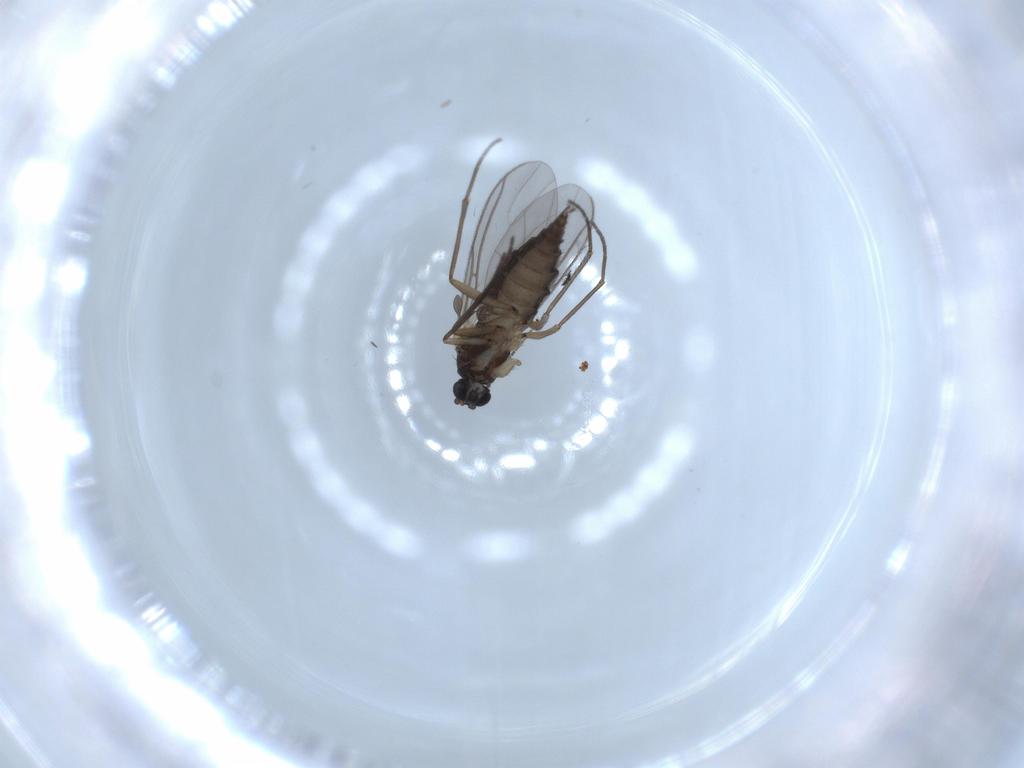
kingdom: Animalia
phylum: Arthropoda
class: Insecta
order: Diptera
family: Sciaridae
